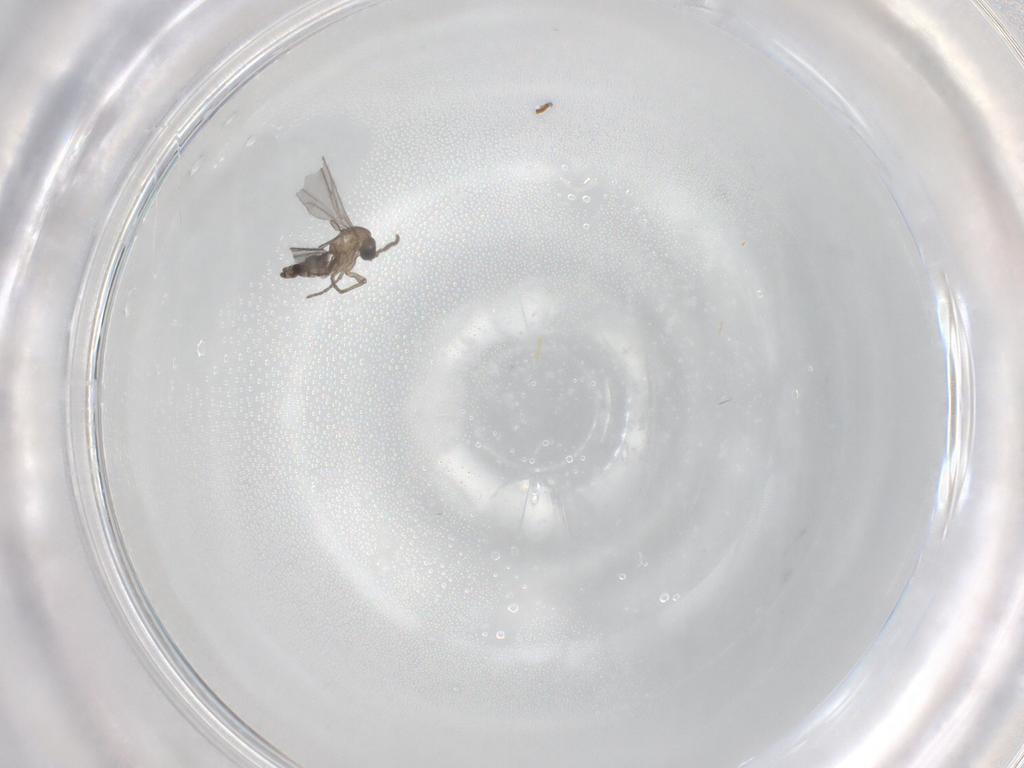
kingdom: Animalia
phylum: Arthropoda
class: Insecta
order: Diptera
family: Sciaridae
